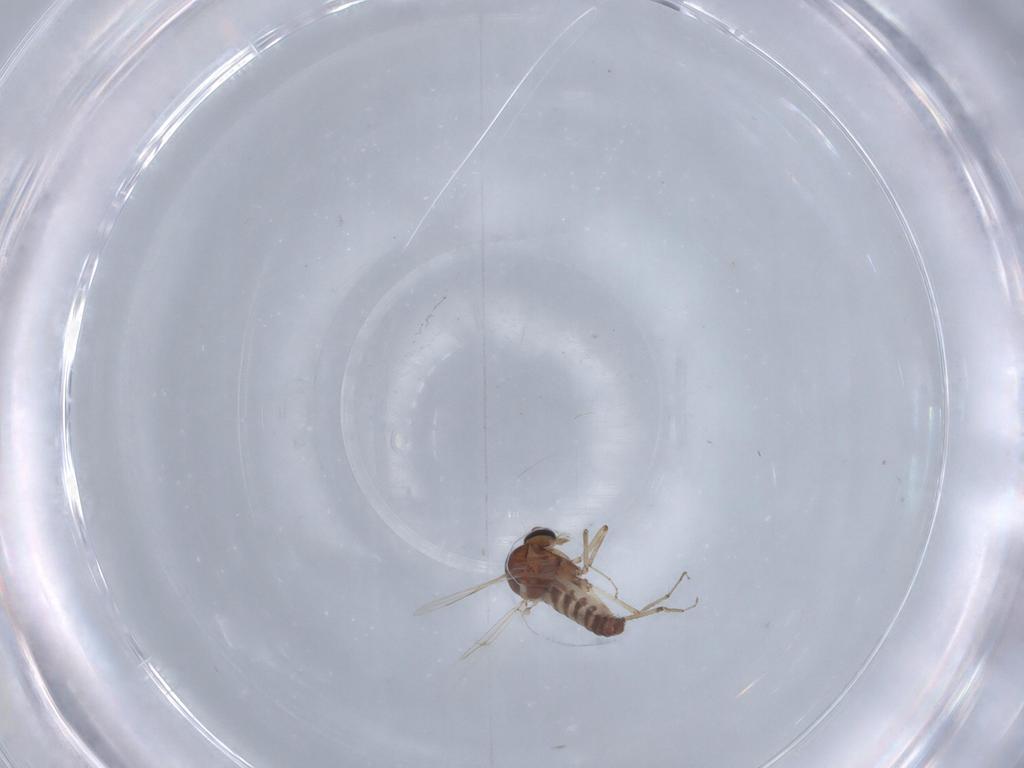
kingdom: Animalia
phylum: Arthropoda
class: Insecta
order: Diptera
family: Ceratopogonidae
